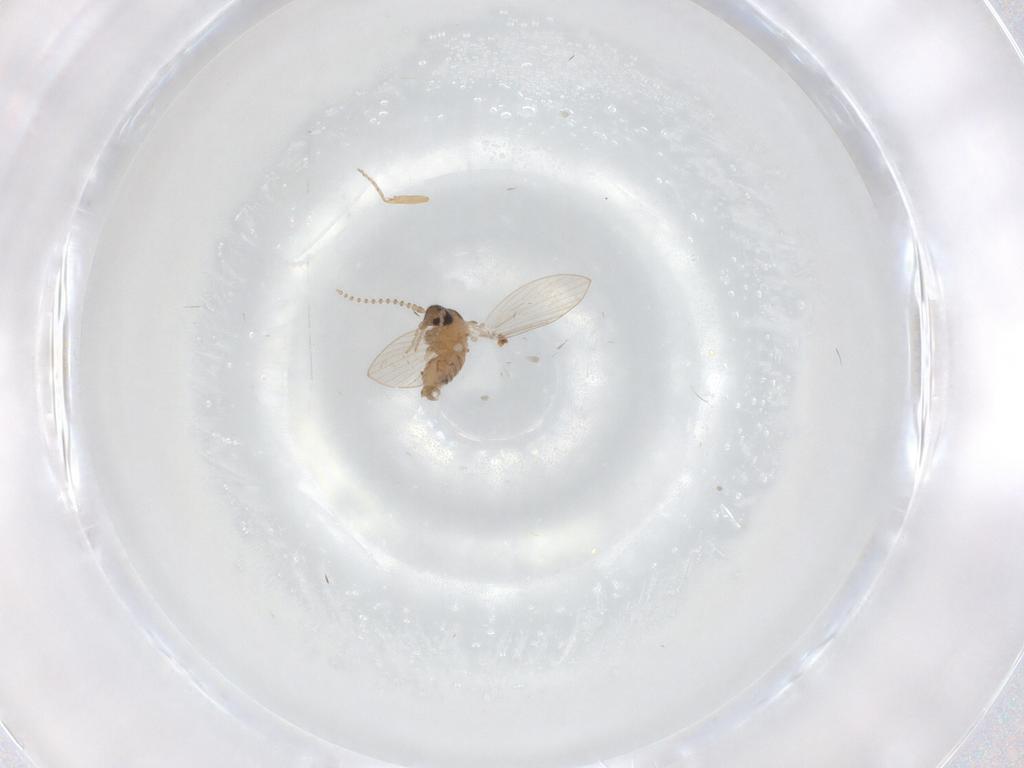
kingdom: Animalia
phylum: Arthropoda
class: Insecta
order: Diptera
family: Psychodidae
